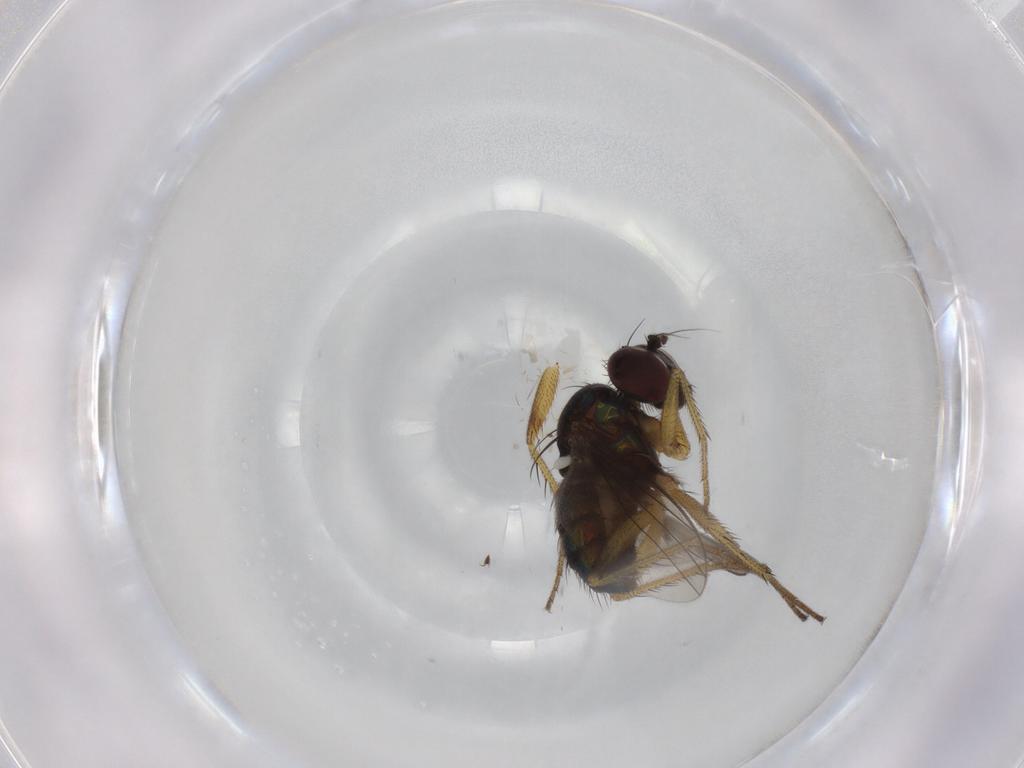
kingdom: Animalia
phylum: Arthropoda
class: Insecta
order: Diptera
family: Dolichopodidae
